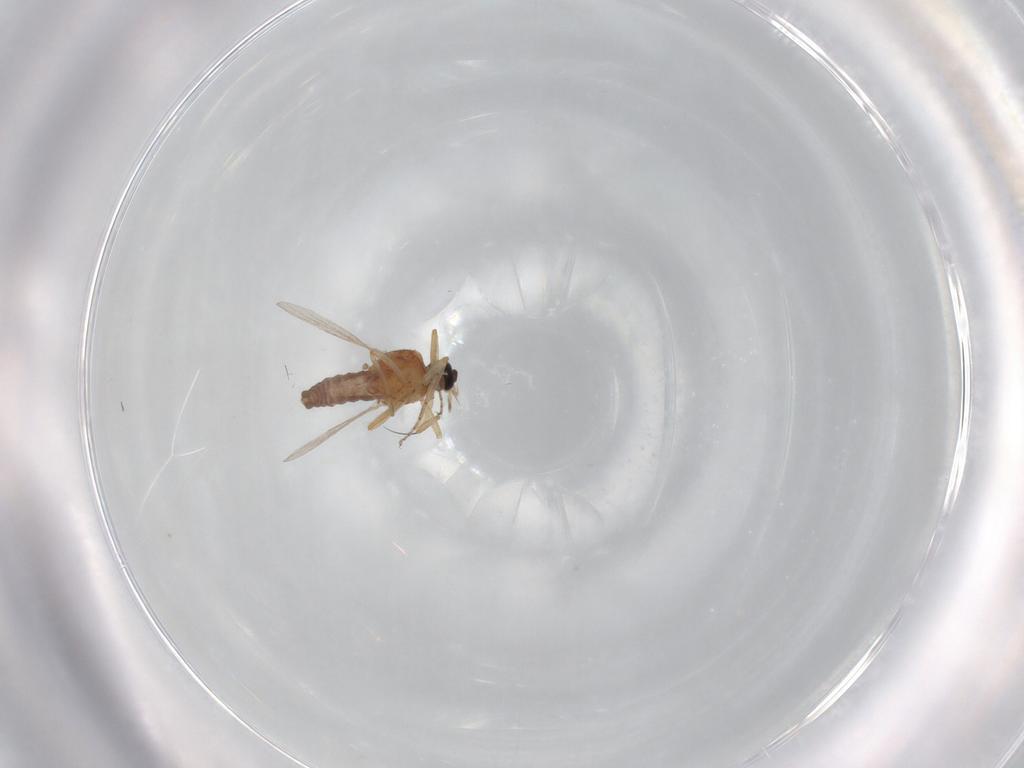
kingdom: Animalia
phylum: Arthropoda
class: Insecta
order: Diptera
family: Ceratopogonidae
